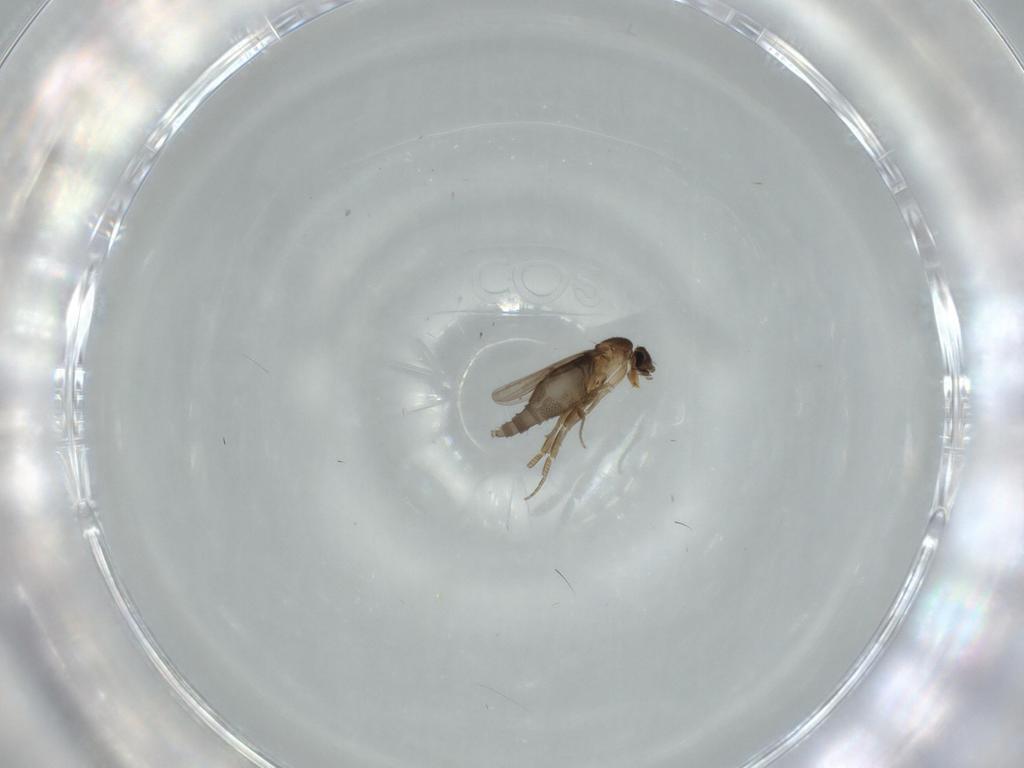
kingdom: Animalia
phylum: Arthropoda
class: Insecta
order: Diptera
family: Phoridae
